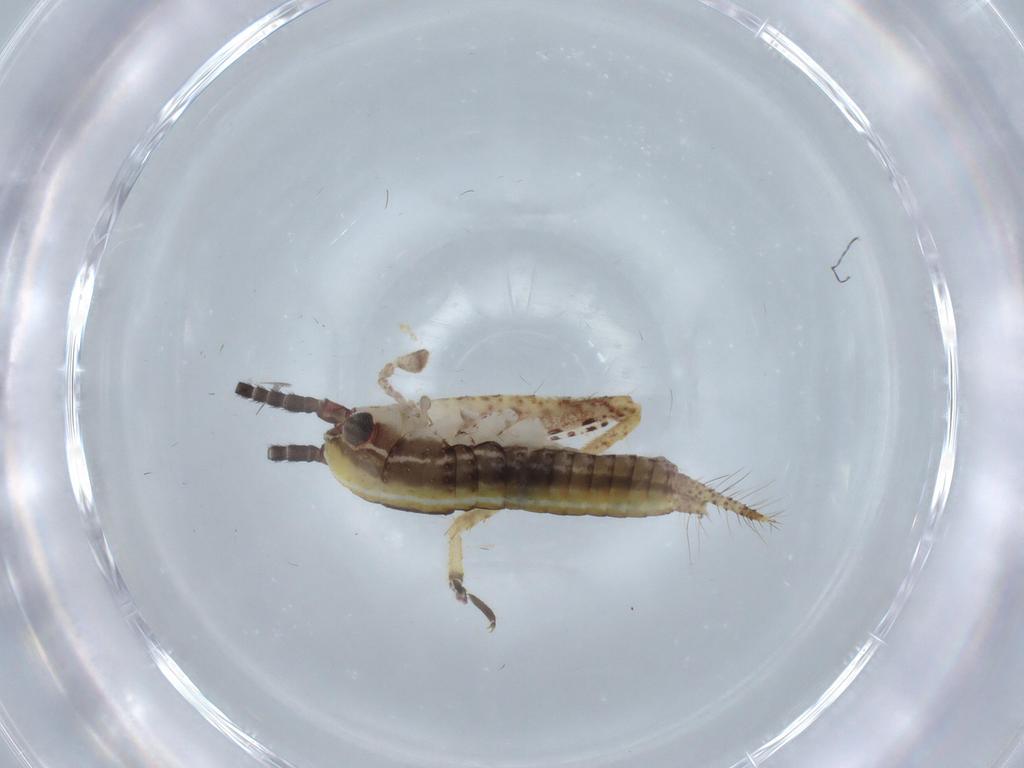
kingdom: Animalia
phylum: Arthropoda
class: Insecta
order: Orthoptera
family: Gryllidae
